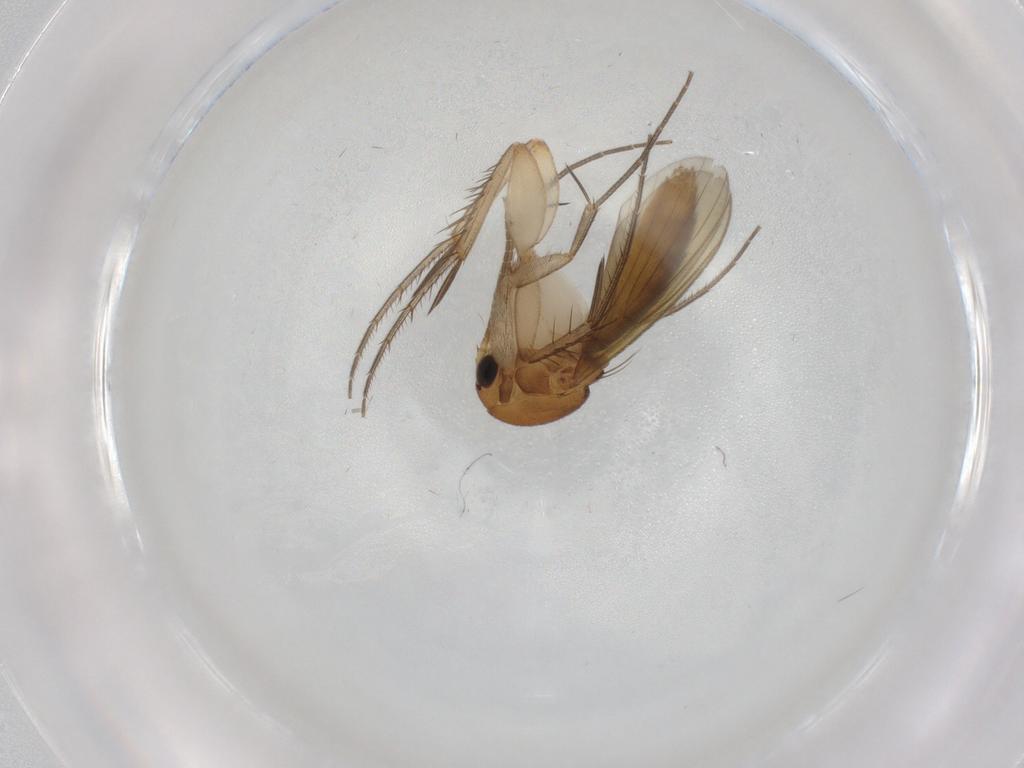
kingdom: Animalia
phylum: Arthropoda
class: Insecta
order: Diptera
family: Mycetophilidae
